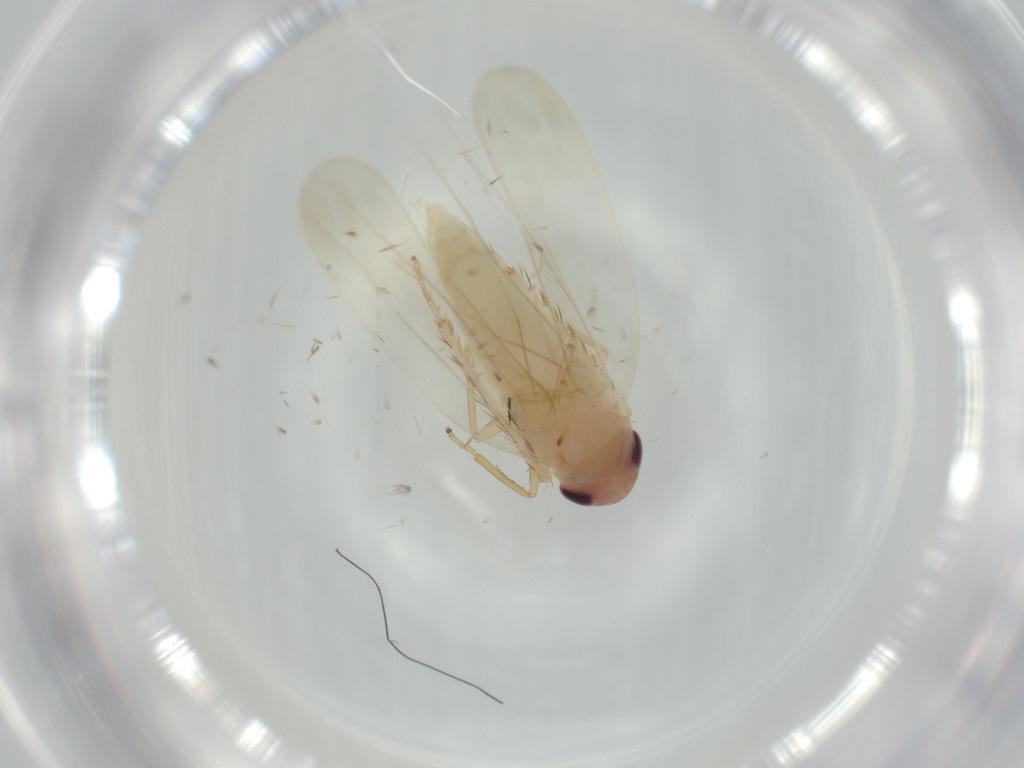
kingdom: Animalia
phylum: Arthropoda
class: Insecta
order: Hemiptera
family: Cicadellidae
